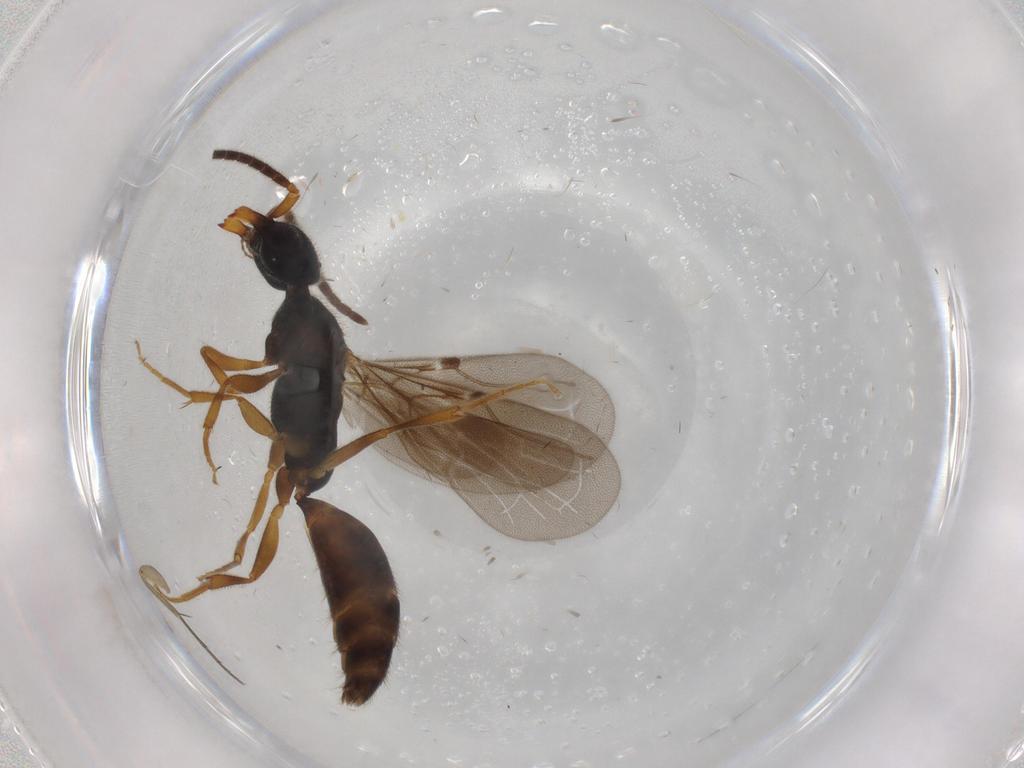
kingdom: Animalia
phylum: Arthropoda
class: Insecta
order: Hymenoptera
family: Bethylidae
